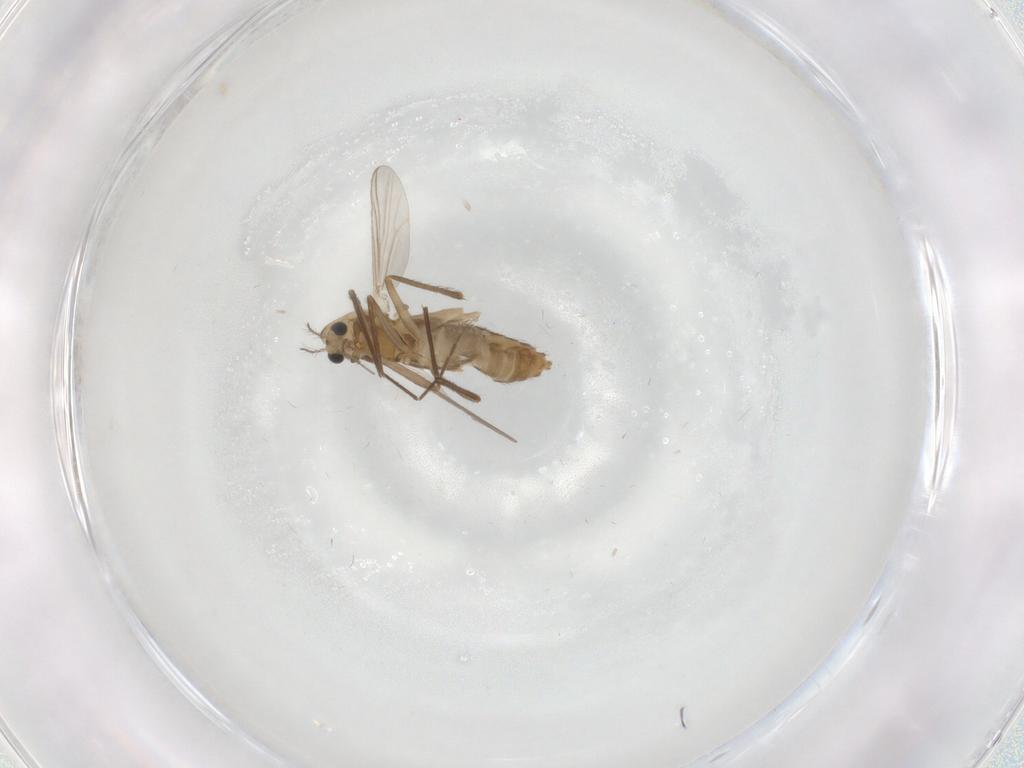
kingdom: Animalia
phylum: Arthropoda
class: Insecta
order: Diptera
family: Chironomidae
